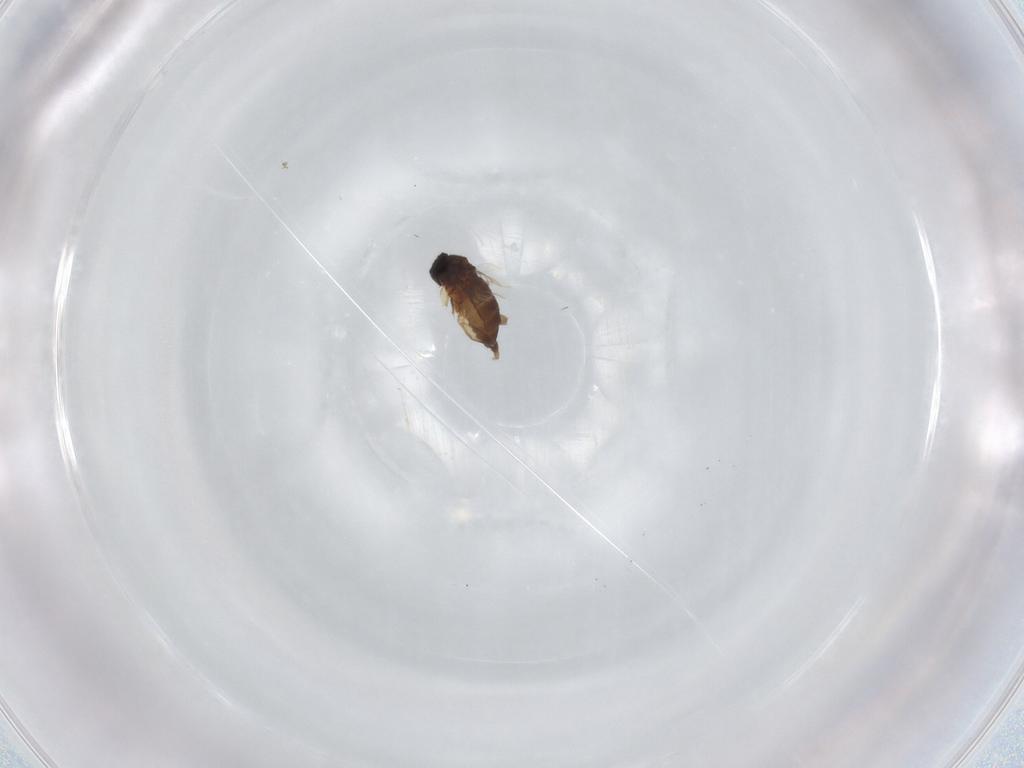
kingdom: Animalia
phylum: Arthropoda
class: Insecta
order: Diptera
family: Phoridae
